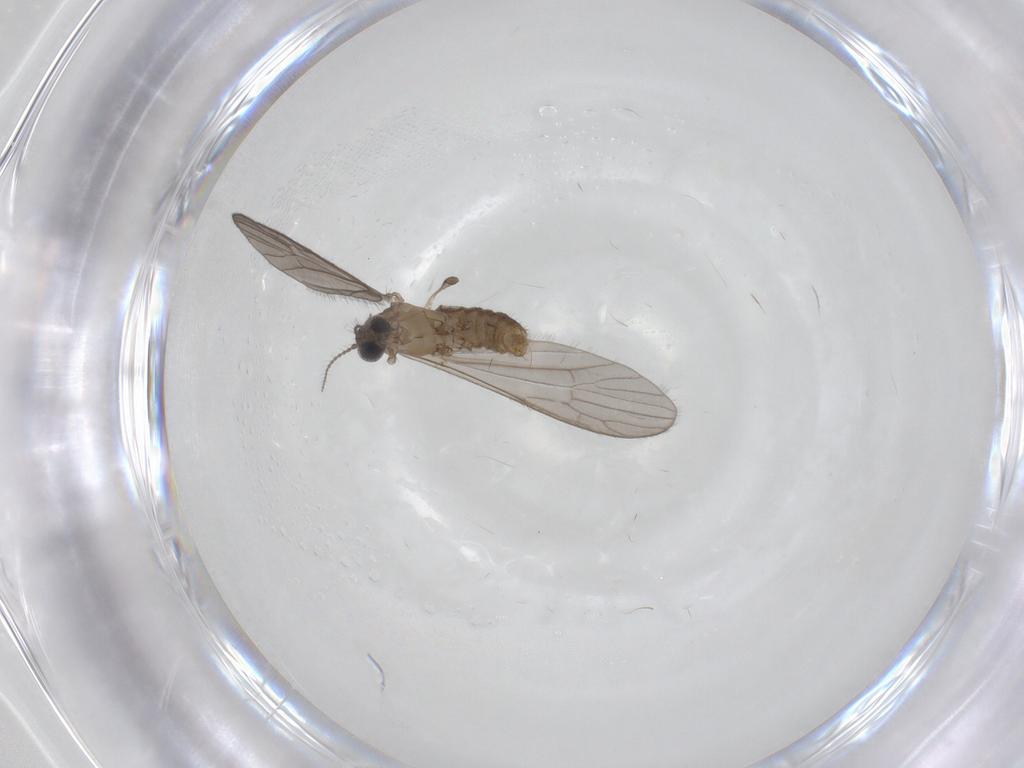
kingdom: Animalia
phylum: Arthropoda
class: Insecta
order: Diptera
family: Limoniidae
